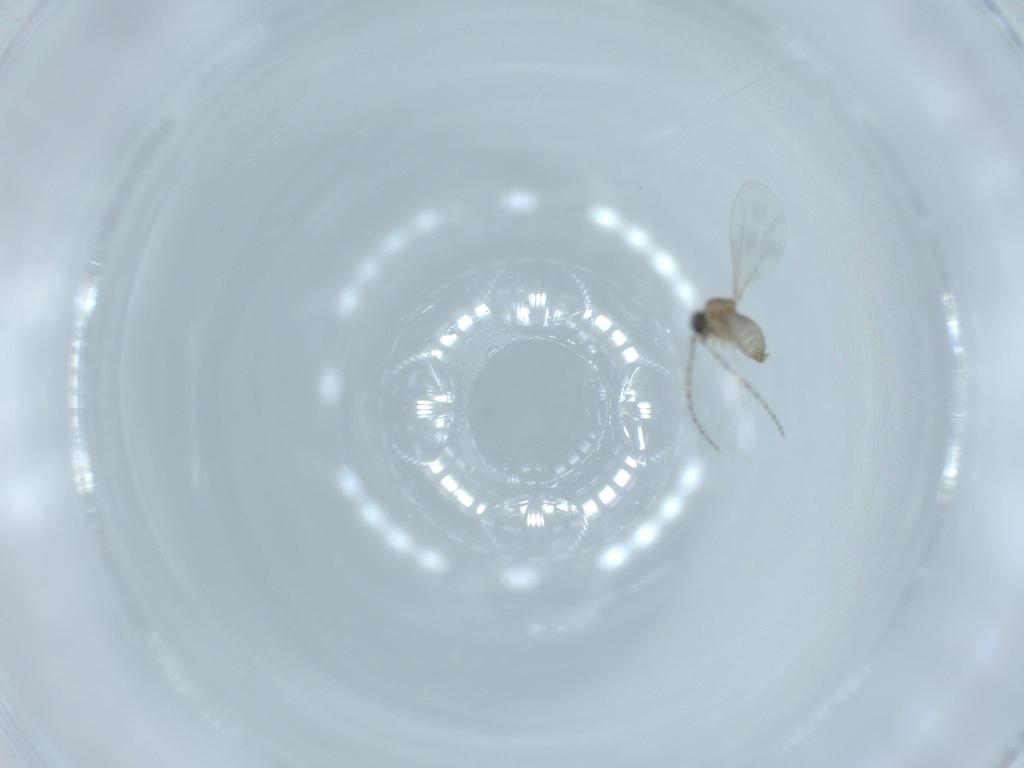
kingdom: Animalia
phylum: Arthropoda
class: Insecta
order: Diptera
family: Cecidomyiidae
